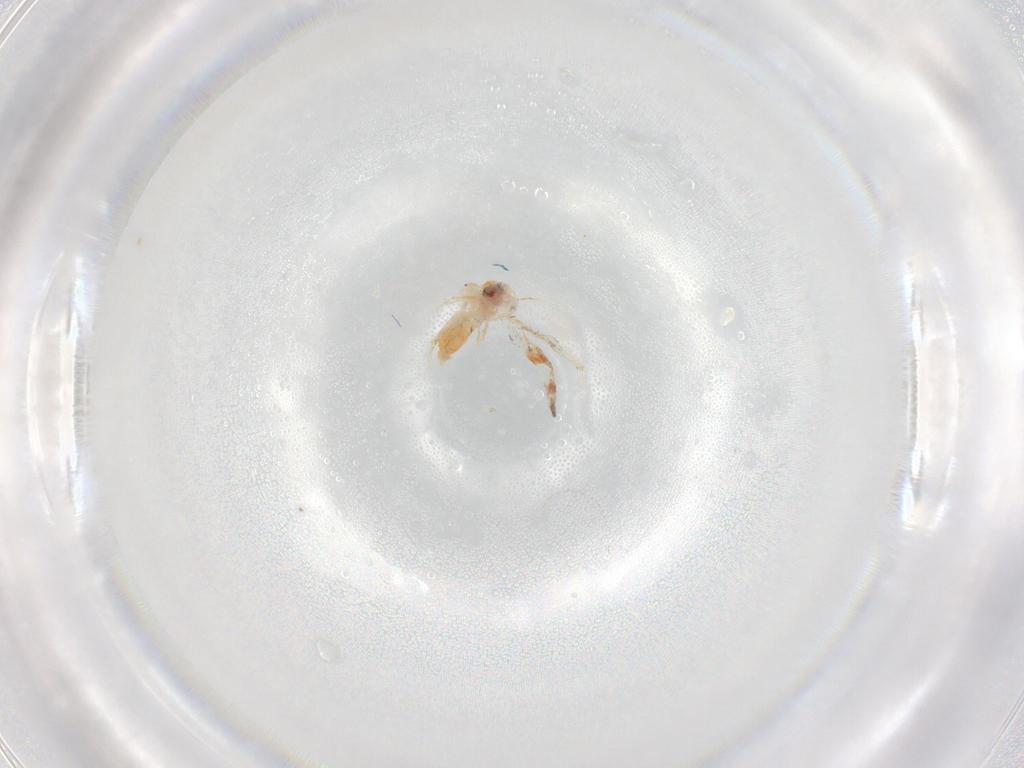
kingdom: Animalia
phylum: Arthropoda
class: Insecta
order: Hemiptera
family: Aleyrodidae
